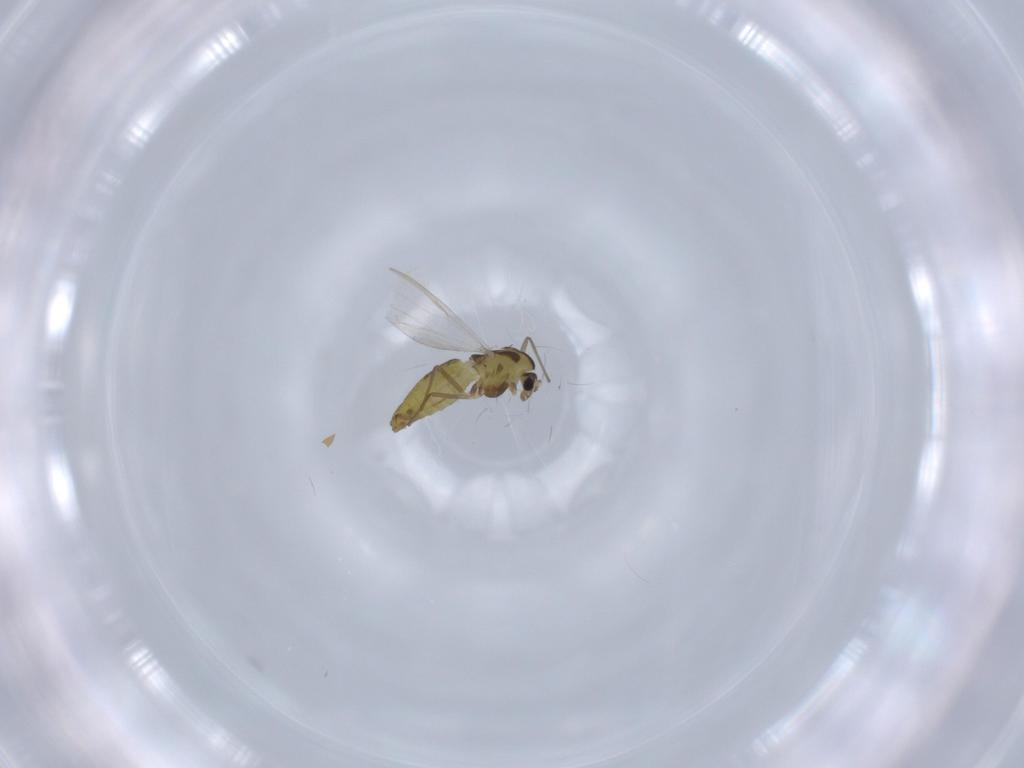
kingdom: Animalia
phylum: Arthropoda
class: Insecta
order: Diptera
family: Chironomidae
